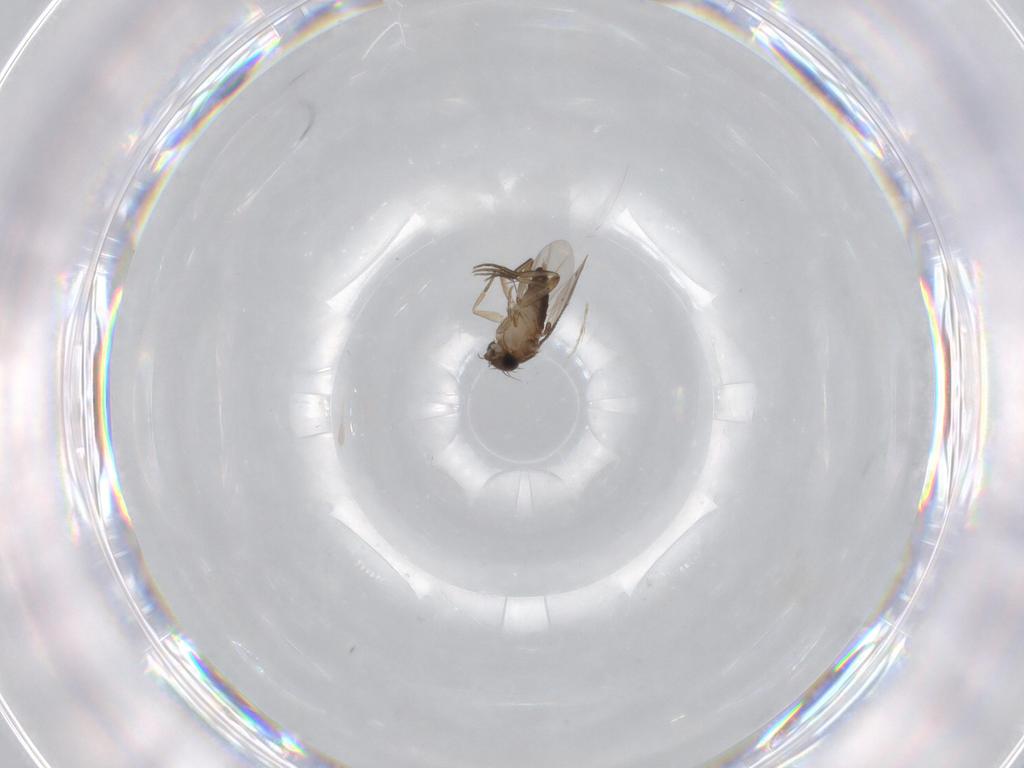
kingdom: Animalia
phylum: Arthropoda
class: Insecta
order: Diptera
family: Phoridae
